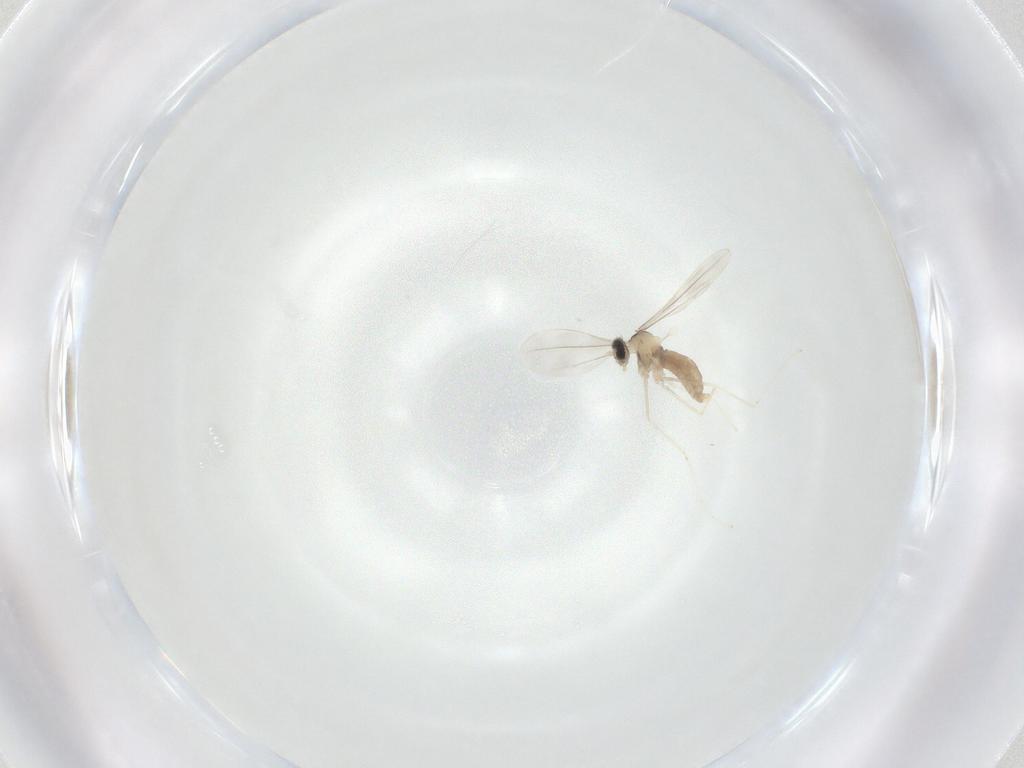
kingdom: Animalia
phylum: Arthropoda
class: Insecta
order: Diptera
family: Cecidomyiidae
